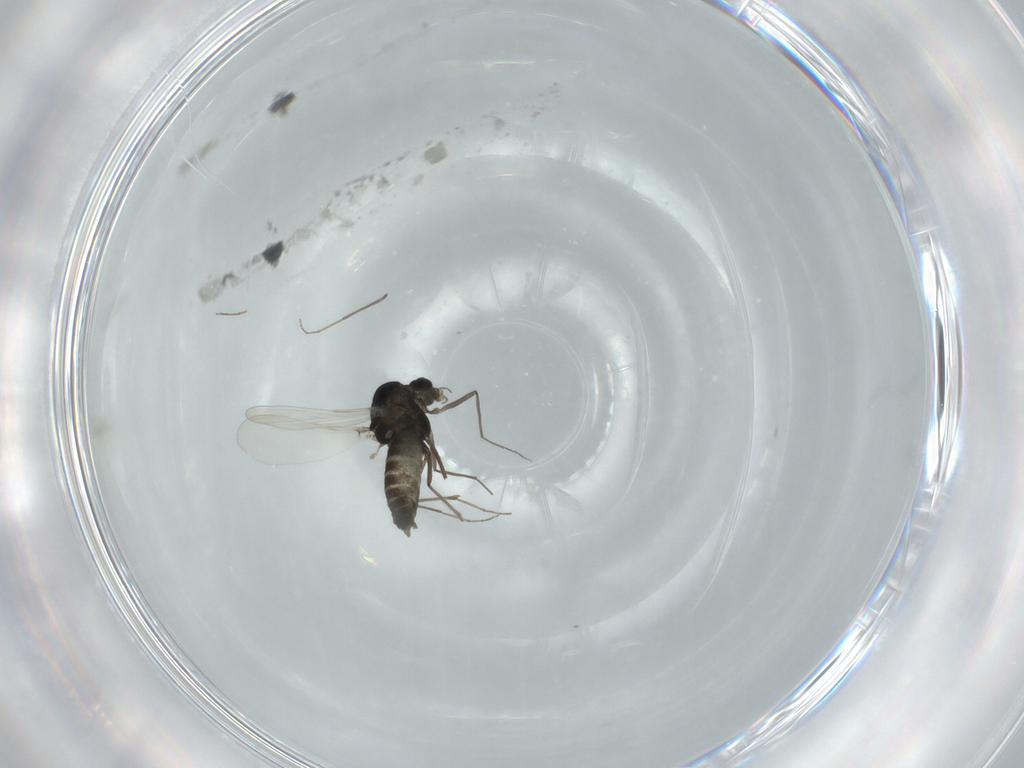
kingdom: Animalia
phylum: Arthropoda
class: Insecta
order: Diptera
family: Chironomidae
